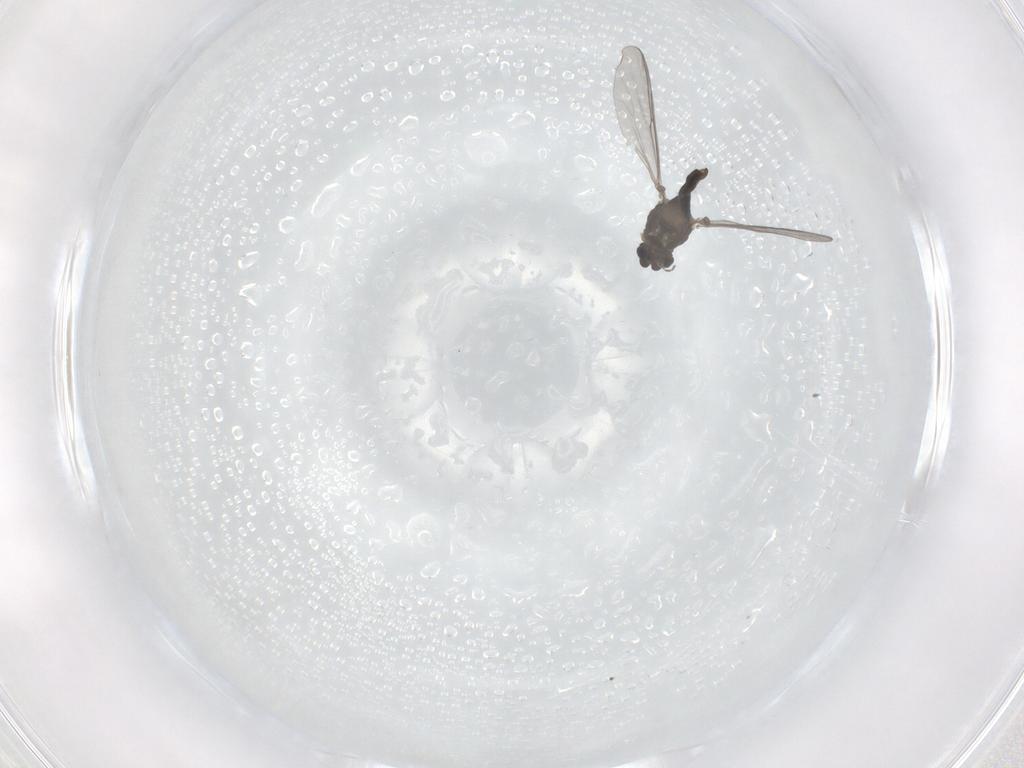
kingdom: Animalia
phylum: Arthropoda
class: Insecta
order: Diptera
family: Chironomidae
